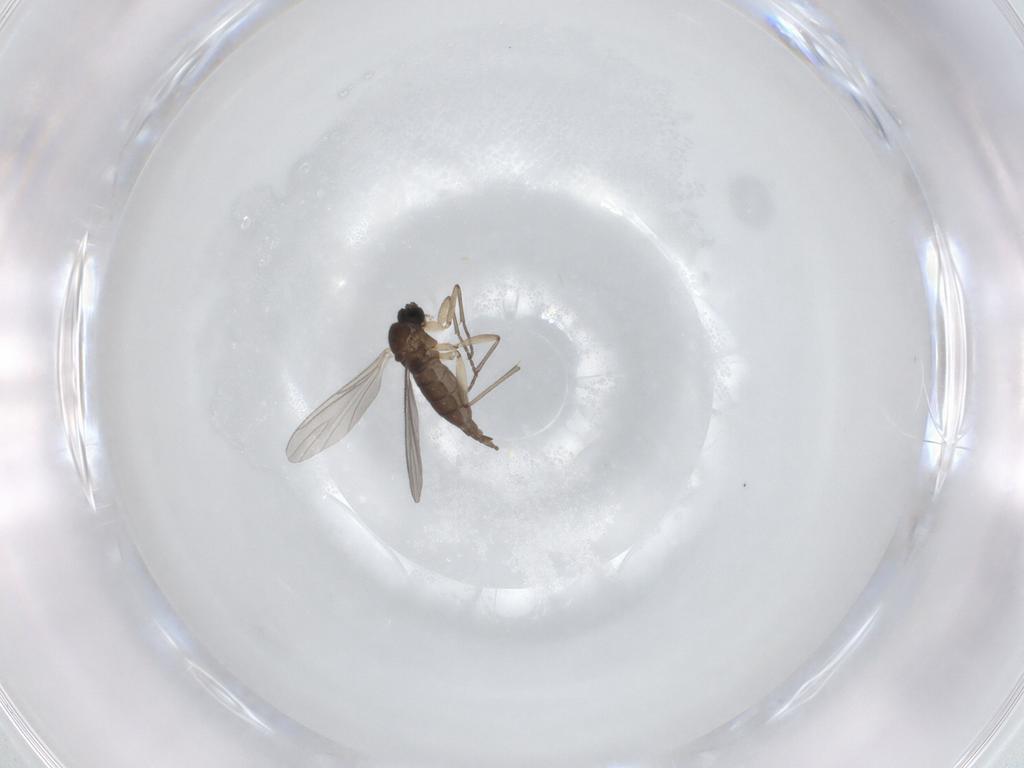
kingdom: Animalia
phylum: Arthropoda
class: Insecta
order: Diptera
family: Sciaridae
